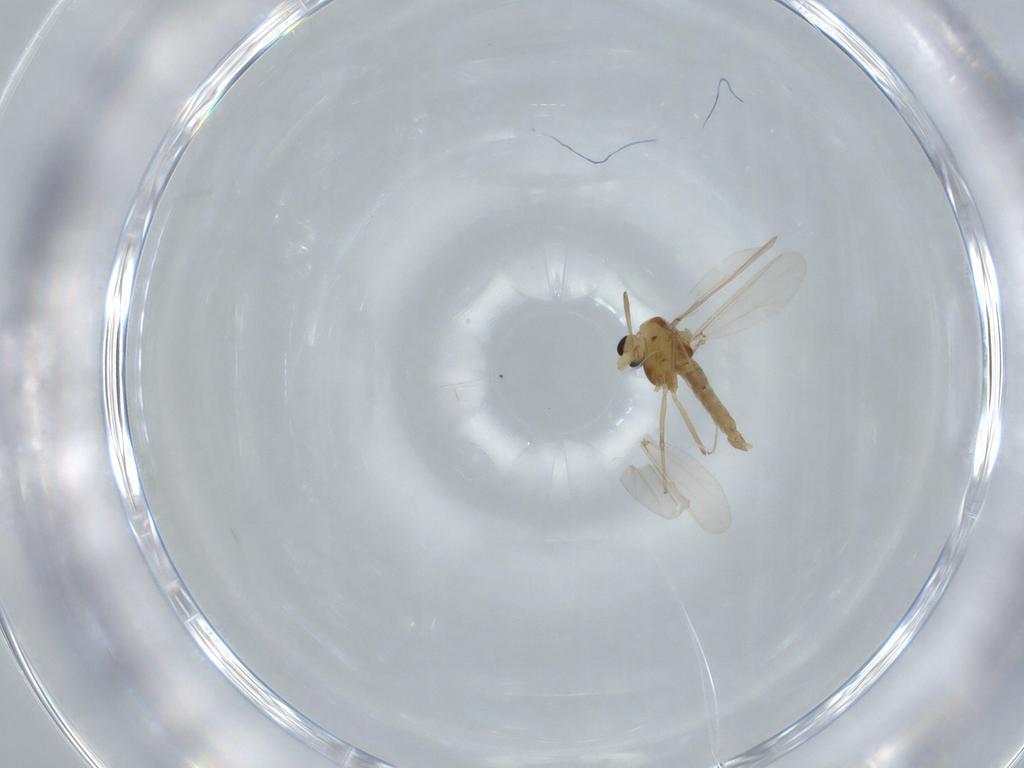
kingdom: Animalia
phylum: Arthropoda
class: Insecta
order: Diptera
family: Chironomidae
